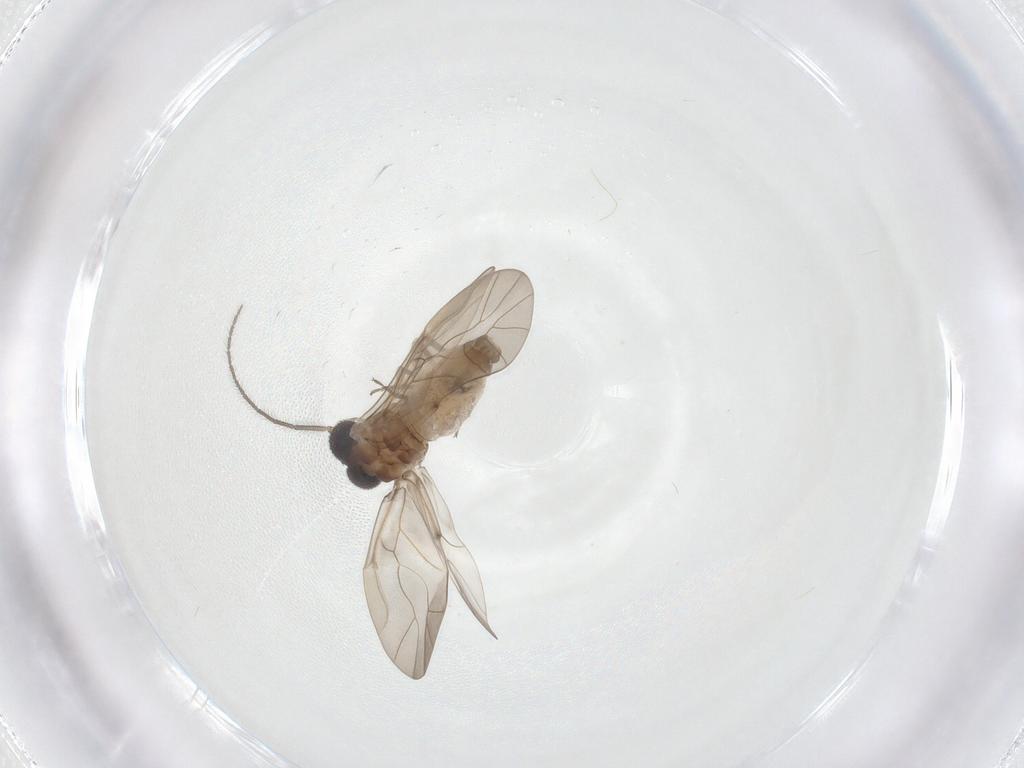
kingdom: Animalia
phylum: Arthropoda
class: Insecta
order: Psocodea
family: Peripsocidae
